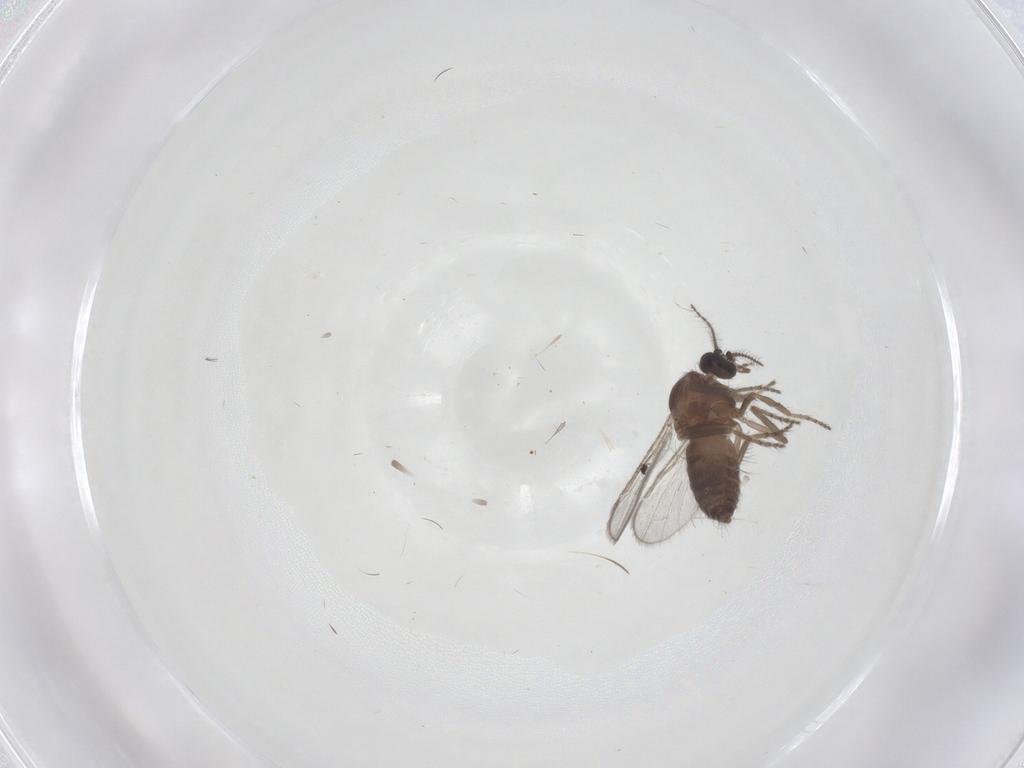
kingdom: Animalia
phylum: Arthropoda
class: Insecta
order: Diptera
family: Ceratopogonidae
